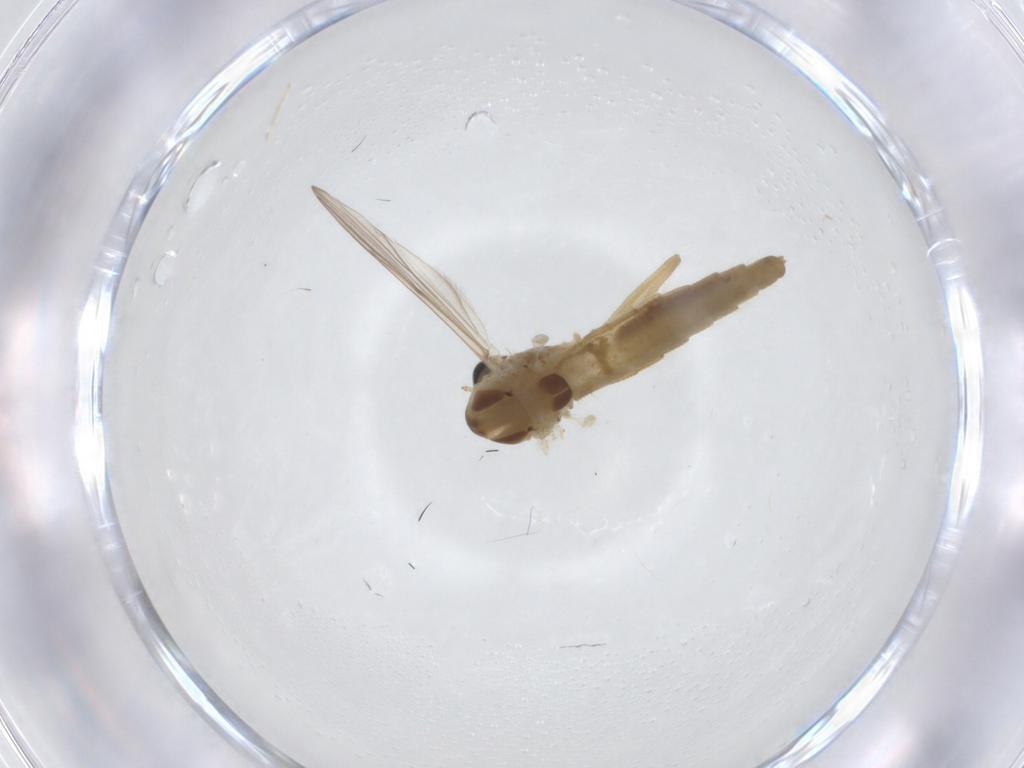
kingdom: Animalia
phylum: Arthropoda
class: Insecta
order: Diptera
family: Chironomidae
